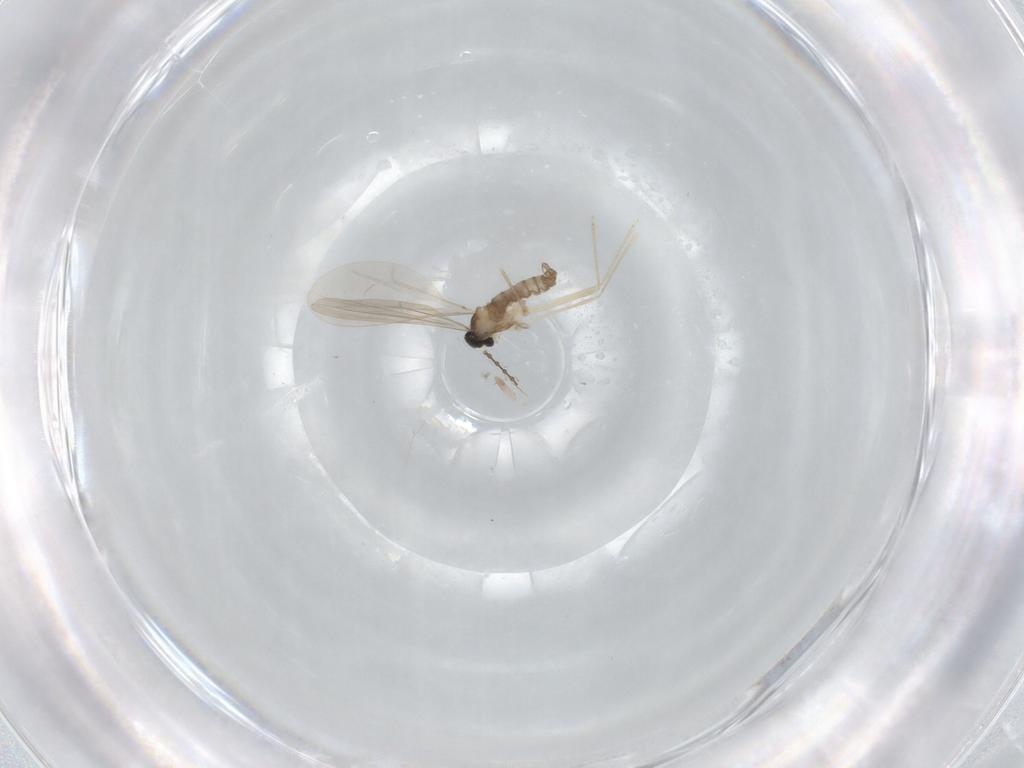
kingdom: Animalia
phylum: Arthropoda
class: Insecta
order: Diptera
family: Cecidomyiidae
